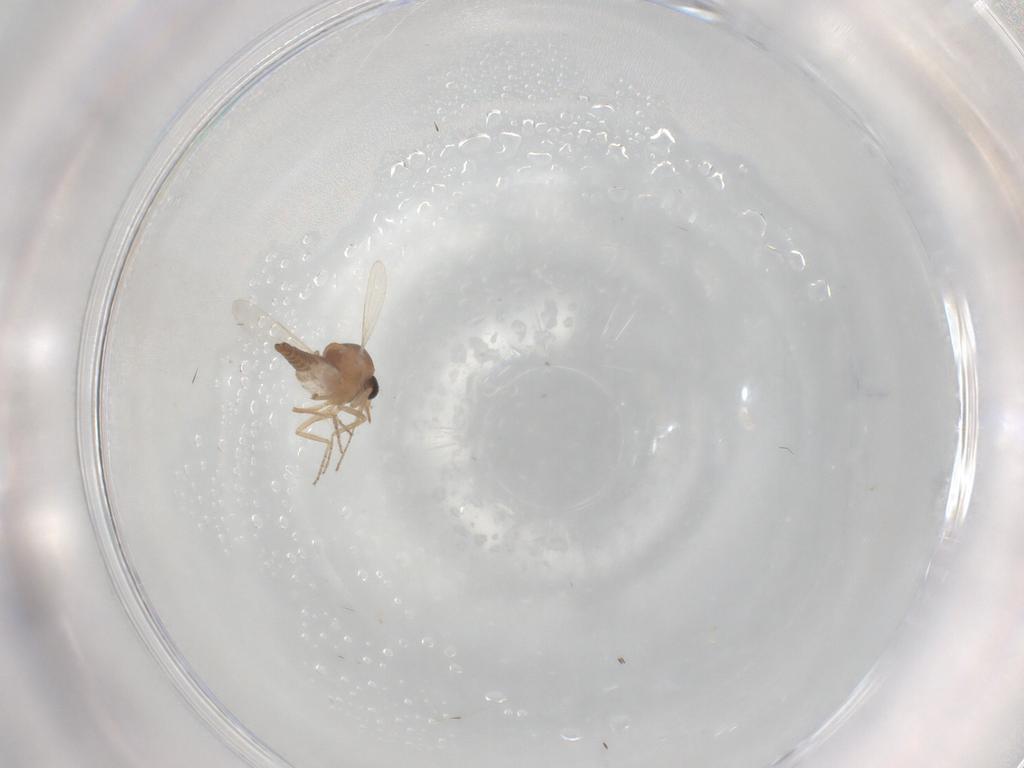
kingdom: Animalia
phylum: Arthropoda
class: Insecta
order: Diptera
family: Ceratopogonidae
